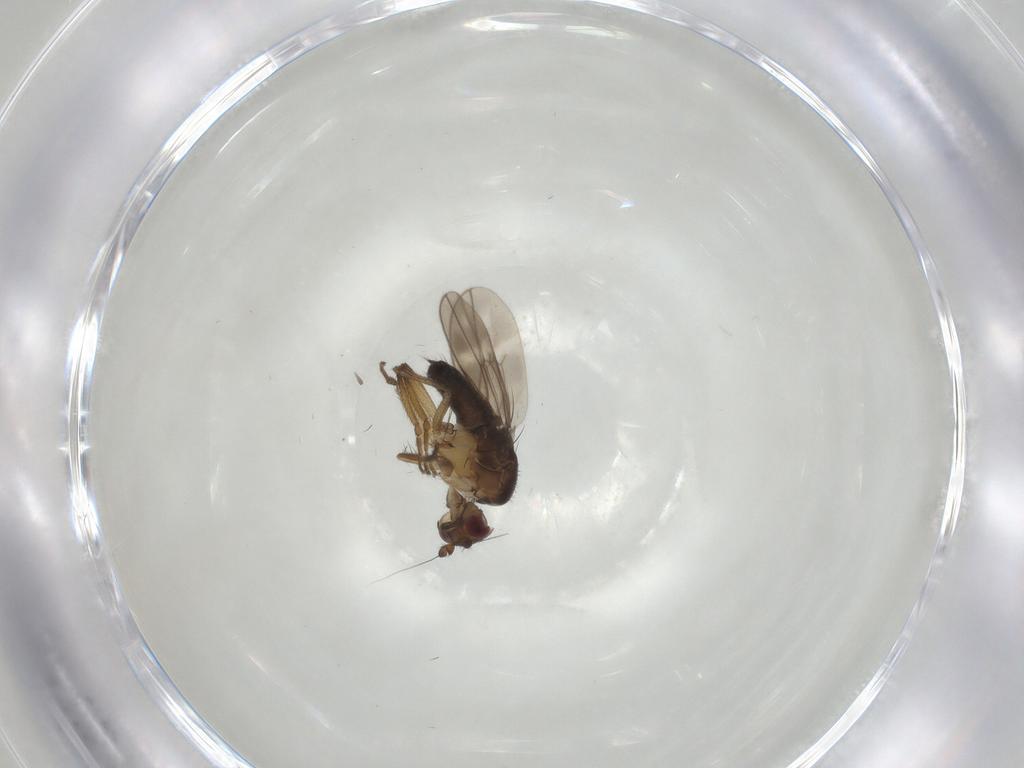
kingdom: Animalia
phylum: Arthropoda
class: Insecta
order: Diptera
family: Sphaeroceridae
